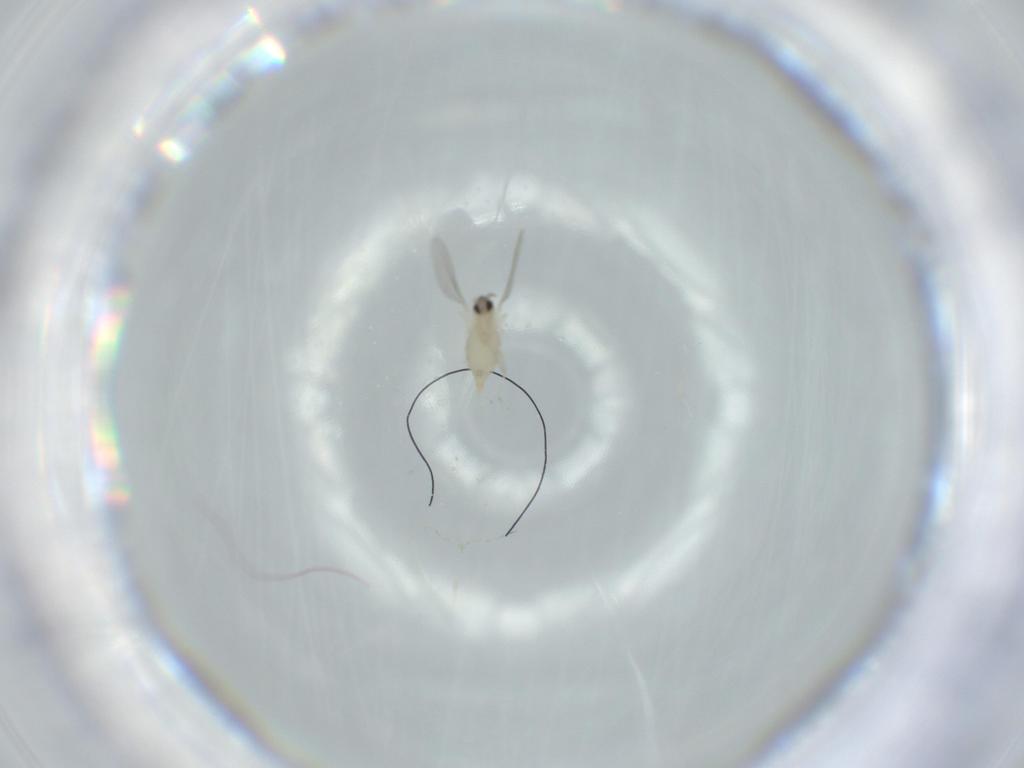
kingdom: Animalia
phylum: Arthropoda
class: Insecta
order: Diptera
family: Cecidomyiidae
